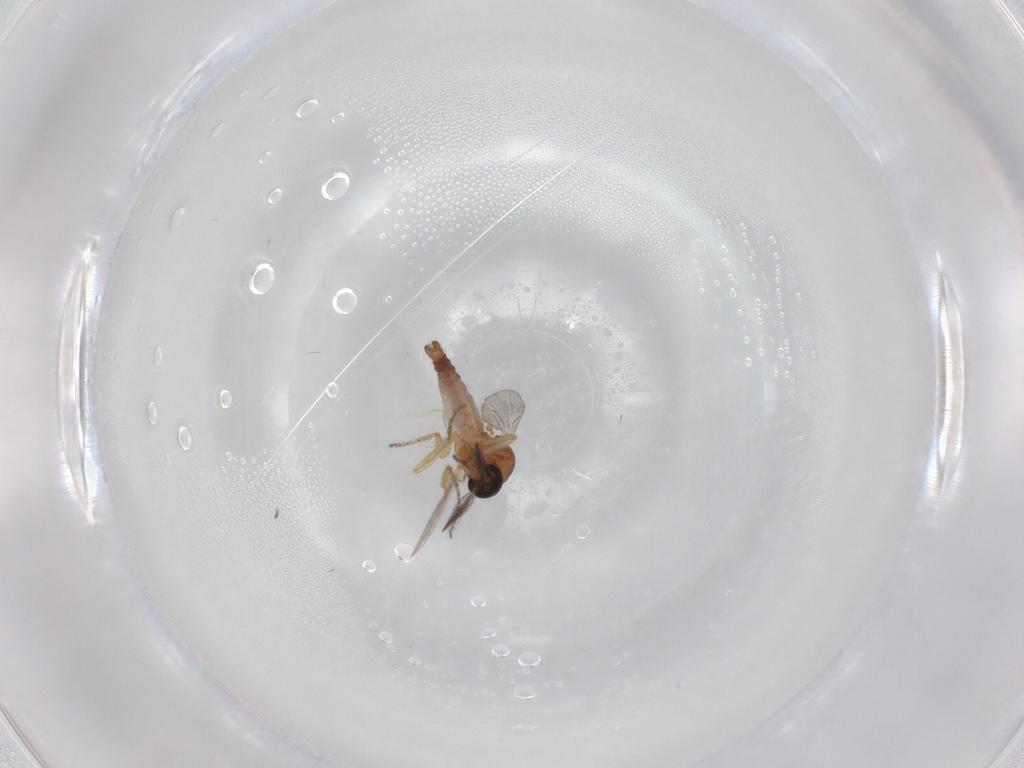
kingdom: Animalia
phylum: Arthropoda
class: Insecta
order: Diptera
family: Ceratopogonidae
